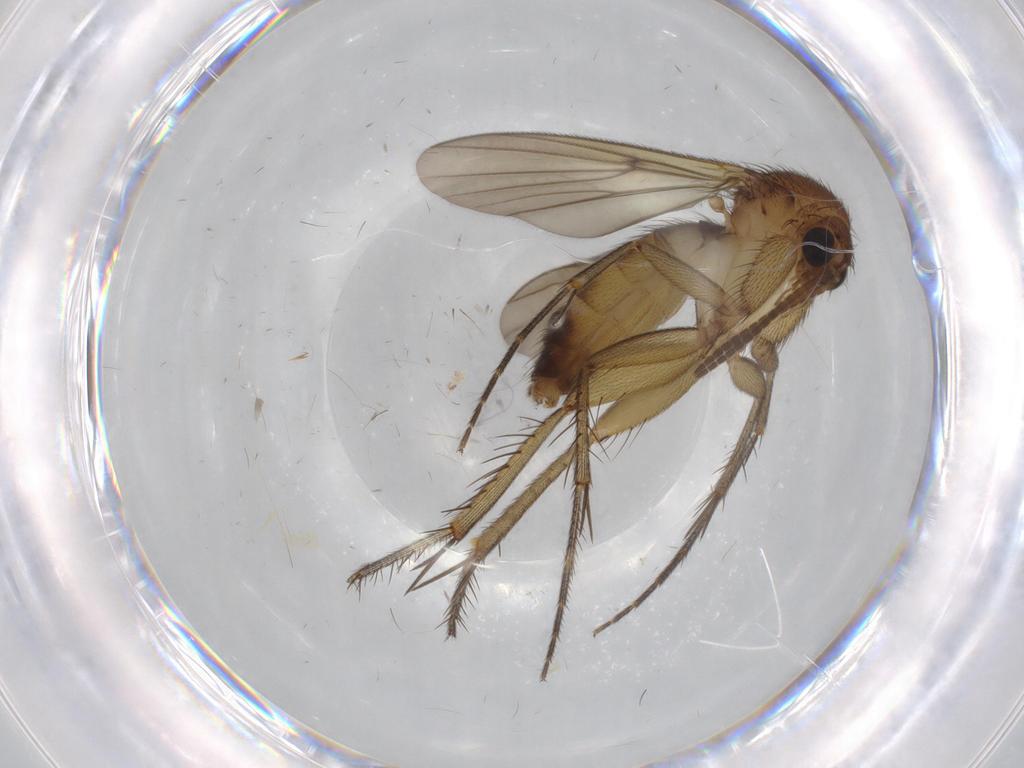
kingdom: Animalia
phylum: Arthropoda
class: Insecta
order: Diptera
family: Mycetophilidae
